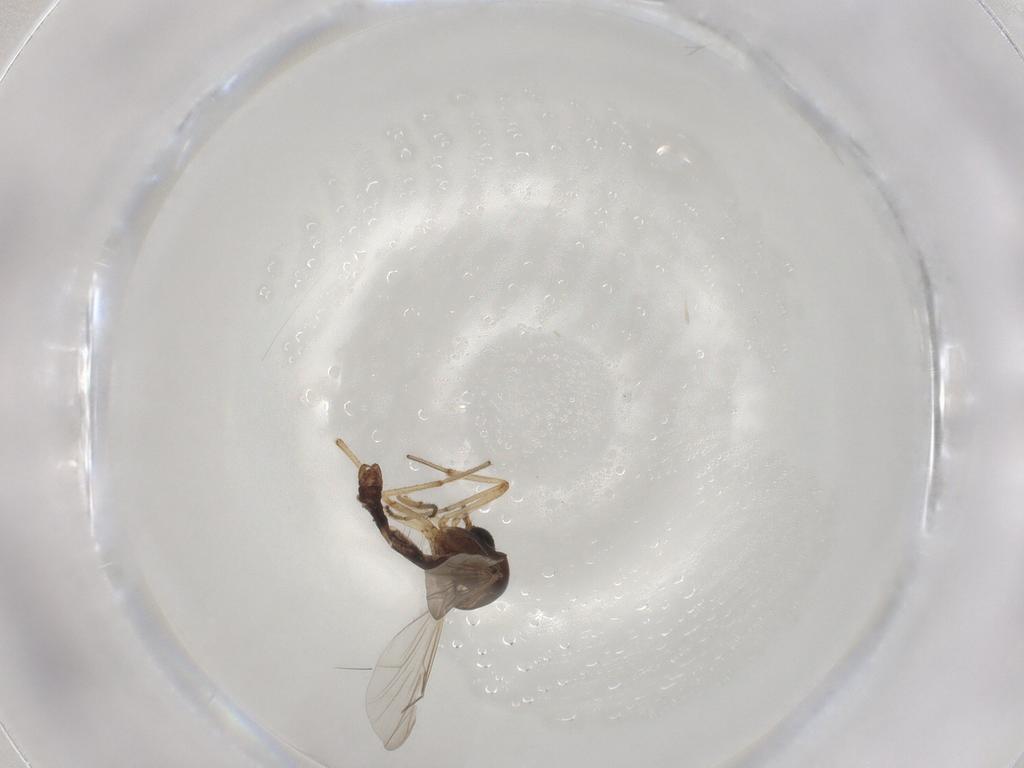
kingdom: Animalia
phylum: Arthropoda
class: Insecta
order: Diptera
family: Drosophilidae
